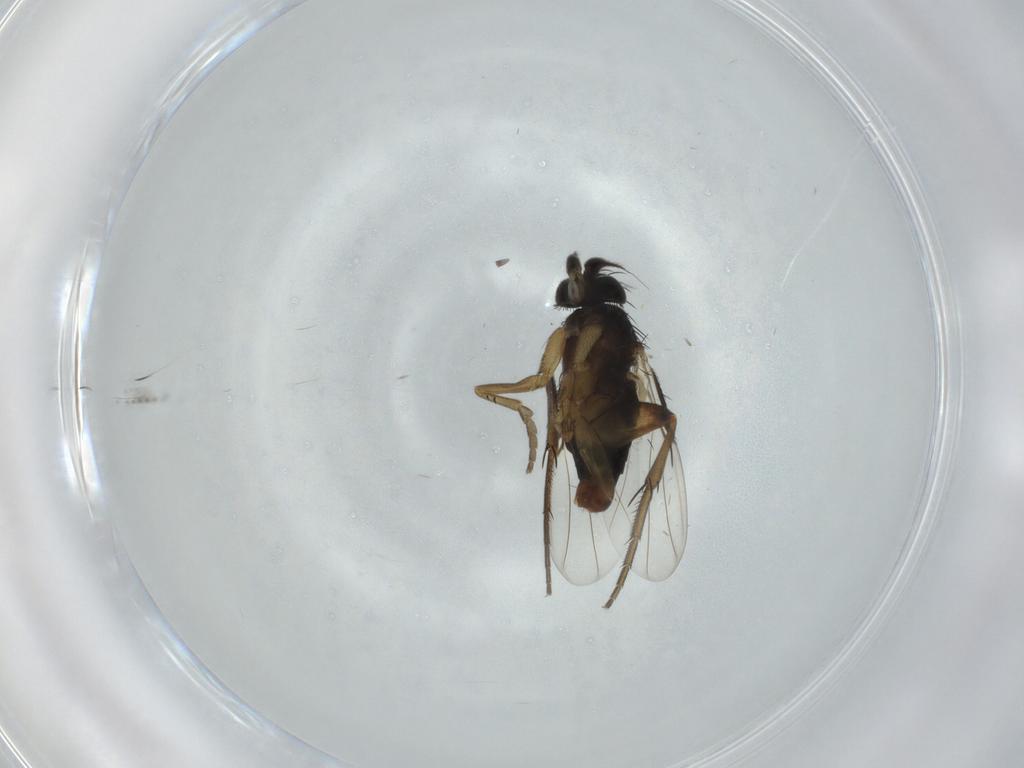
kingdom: Animalia
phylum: Arthropoda
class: Insecta
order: Diptera
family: Phoridae
